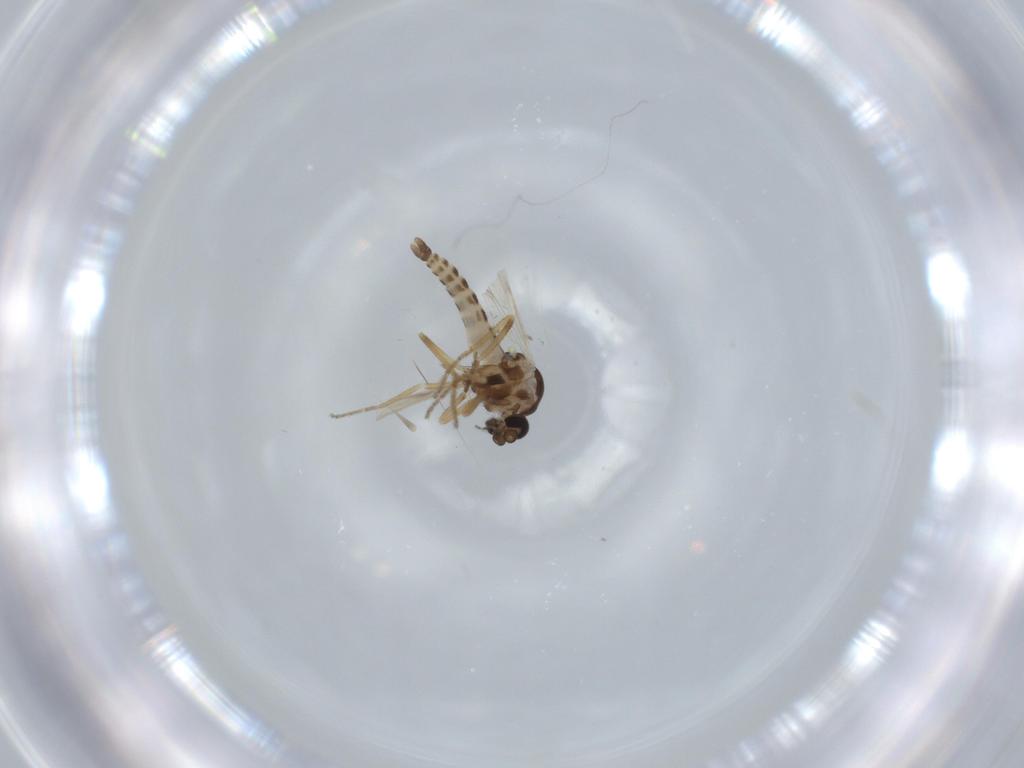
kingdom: Animalia
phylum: Arthropoda
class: Insecta
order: Diptera
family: Ceratopogonidae
